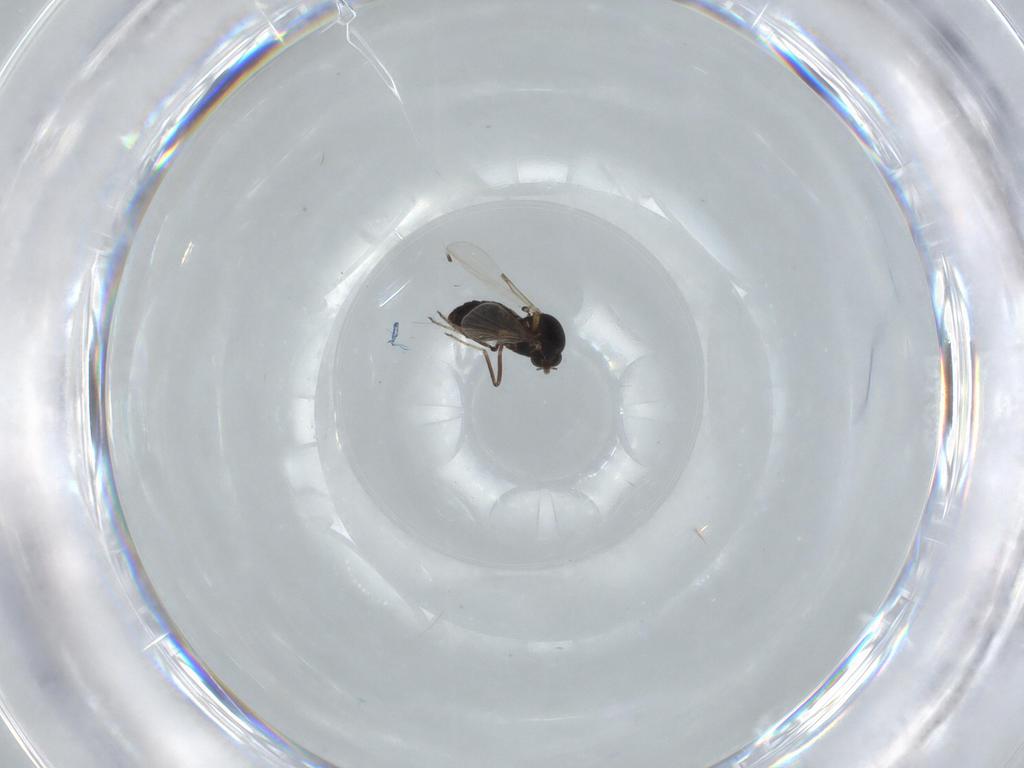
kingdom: Animalia
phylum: Arthropoda
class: Insecta
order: Diptera
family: Ceratopogonidae
